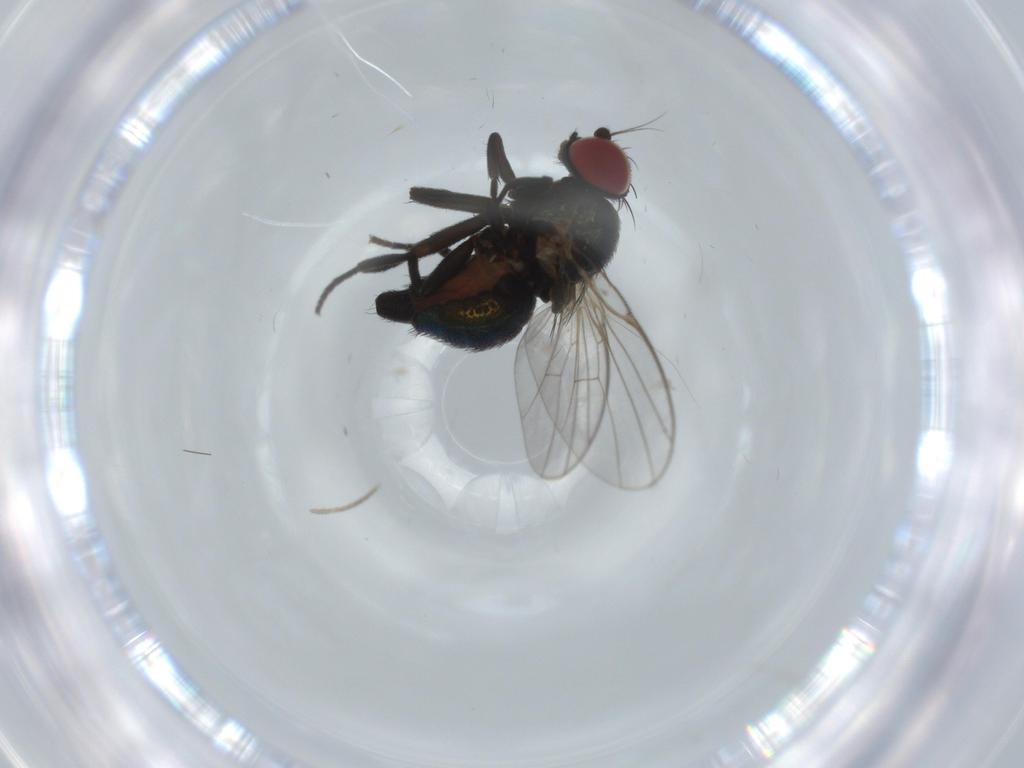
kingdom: Animalia
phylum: Arthropoda
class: Insecta
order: Diptera
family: Agromyzidae
